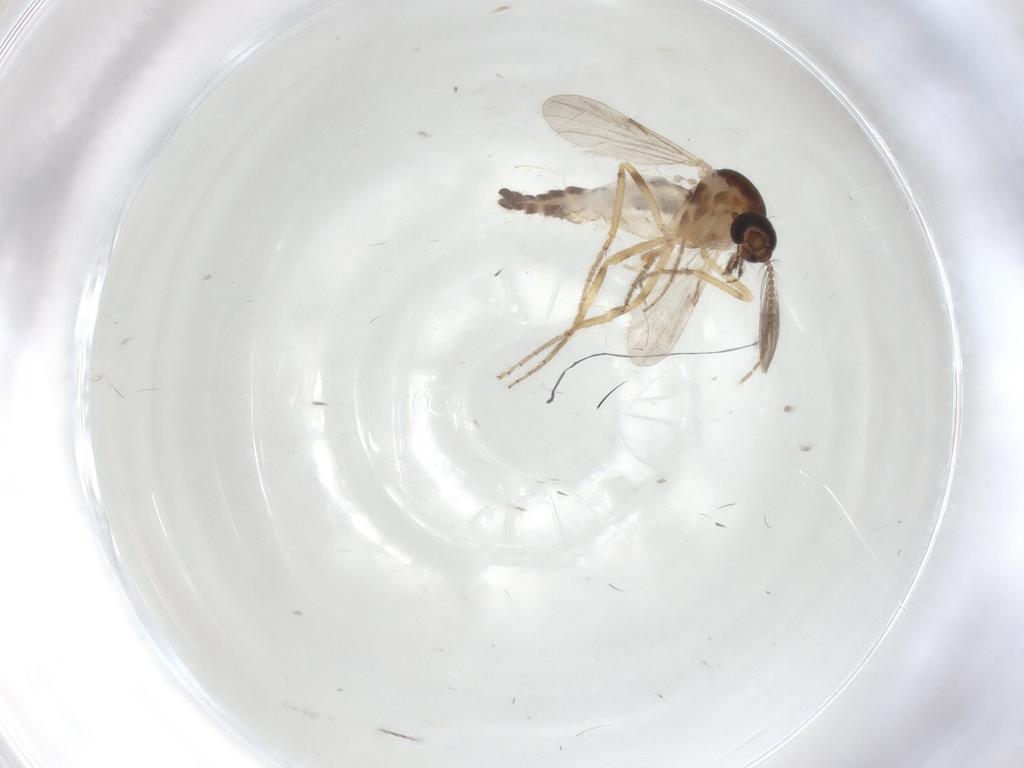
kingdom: Animalia
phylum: Arthropoda
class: Insecta
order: Diptera
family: Ceratopogonidae
